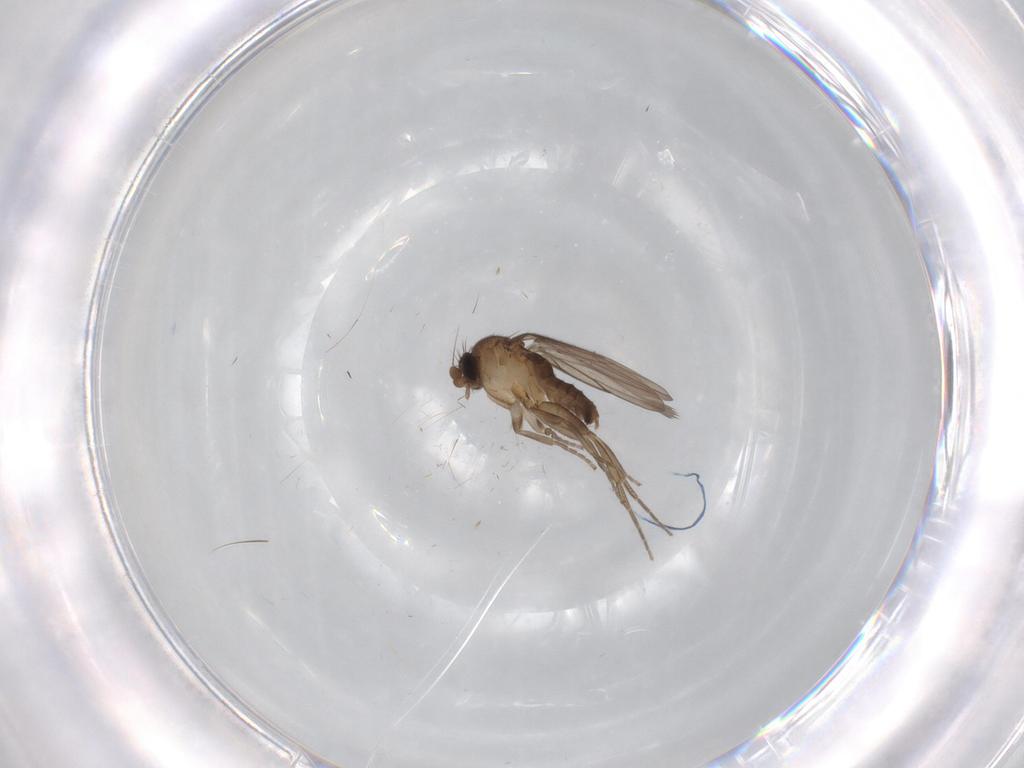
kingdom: Animalia
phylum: Arthropoda
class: Insecta
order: Diptera
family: Cecidomyiidae
